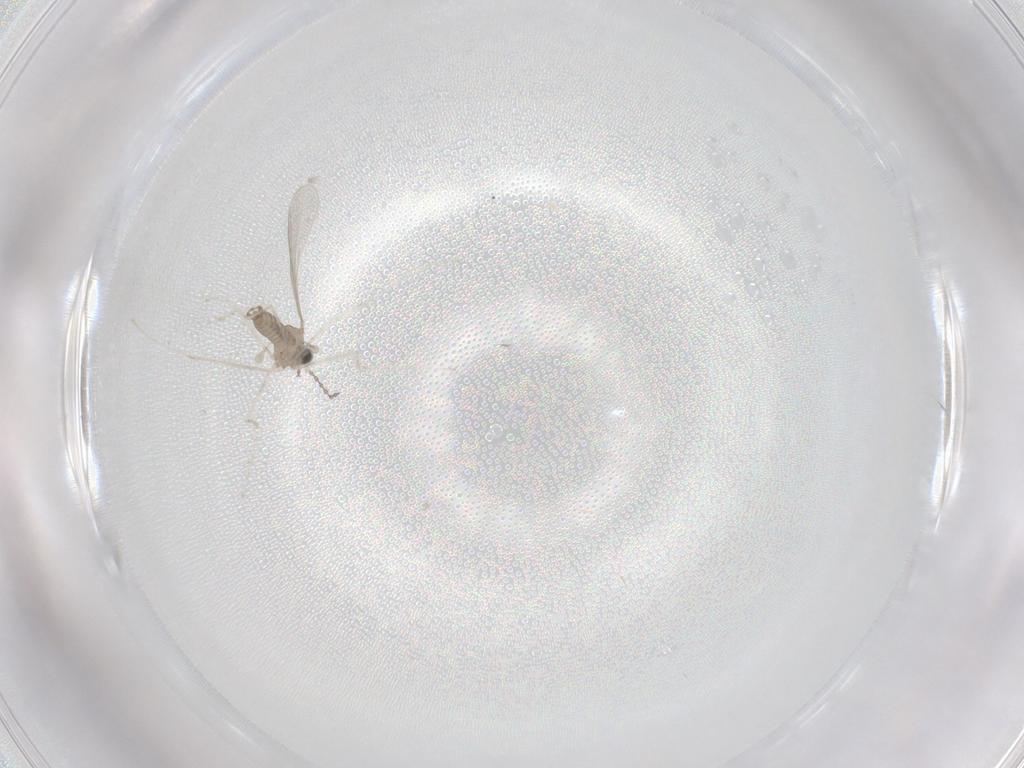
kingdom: Animalia
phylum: Arthropoda
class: Insecta
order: Diptera
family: Cecidomyiidae
